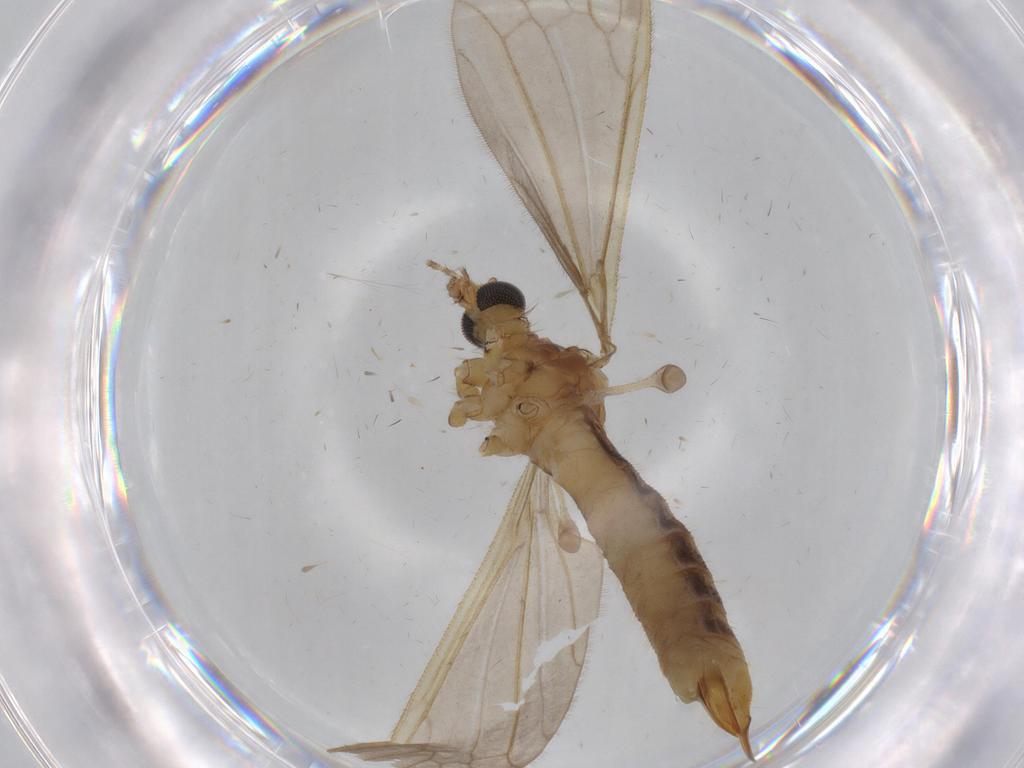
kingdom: Animalia
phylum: Arthropoda
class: Insecta
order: Diptera
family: Limoniidae
